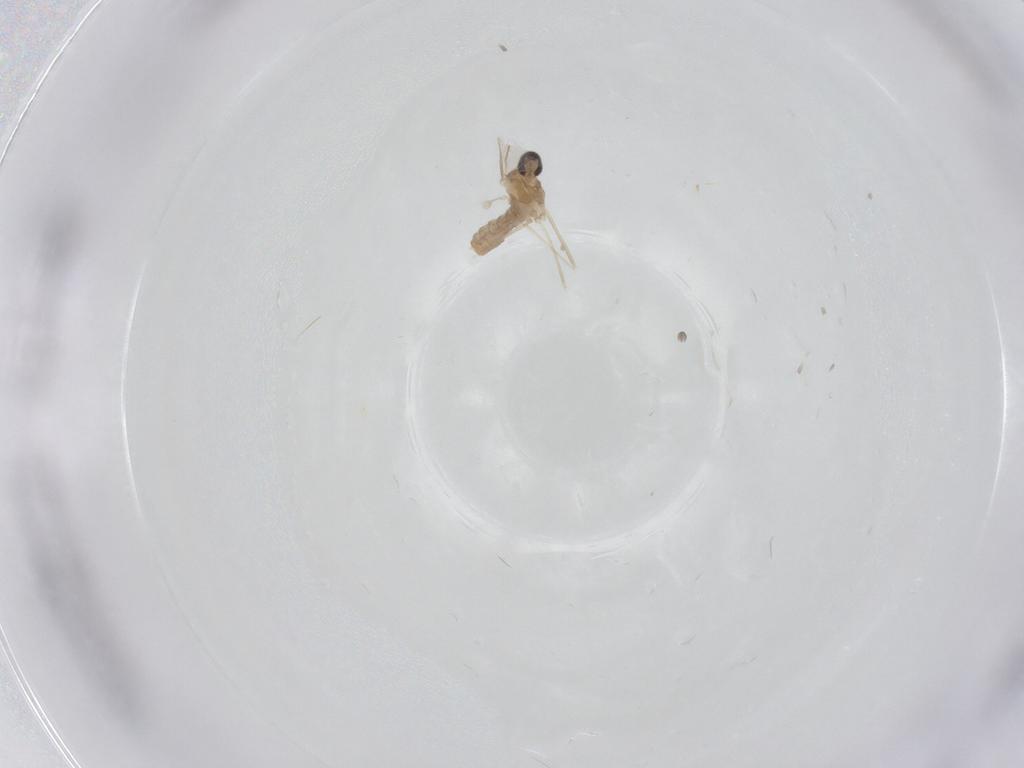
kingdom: Animalia
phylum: Arthropoda
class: Insecta
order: Diptera
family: Cecidomyiidae
